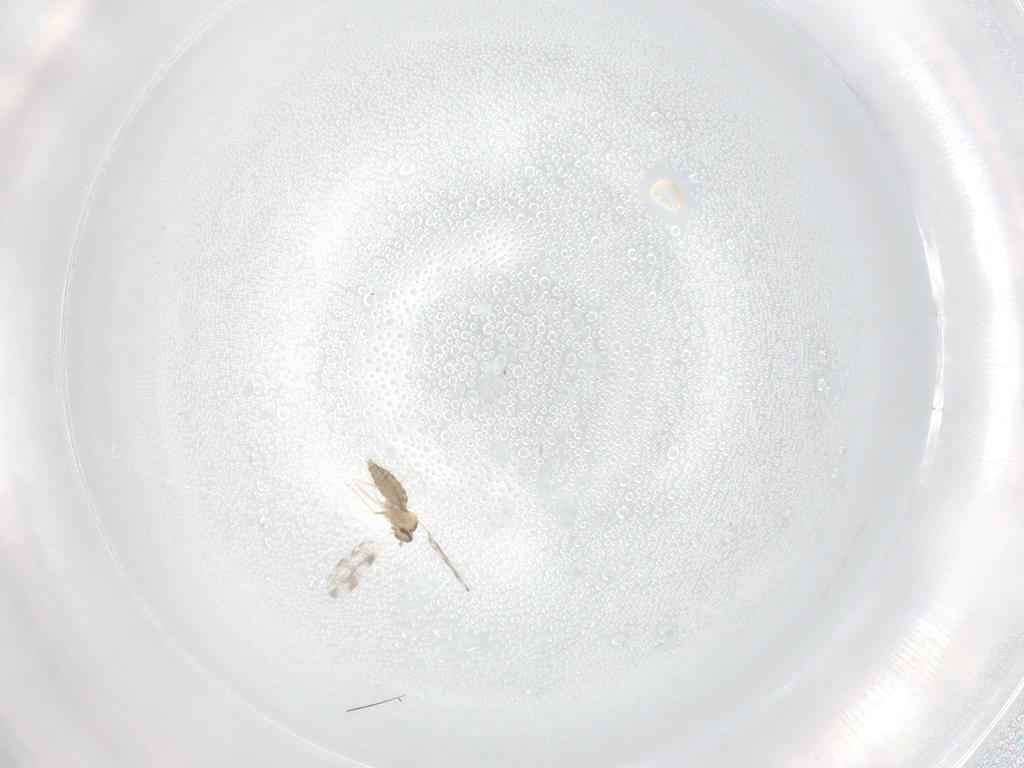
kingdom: Animalia
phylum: Arthropoda
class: Insecta
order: Diptera
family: Cecidomyiidae
